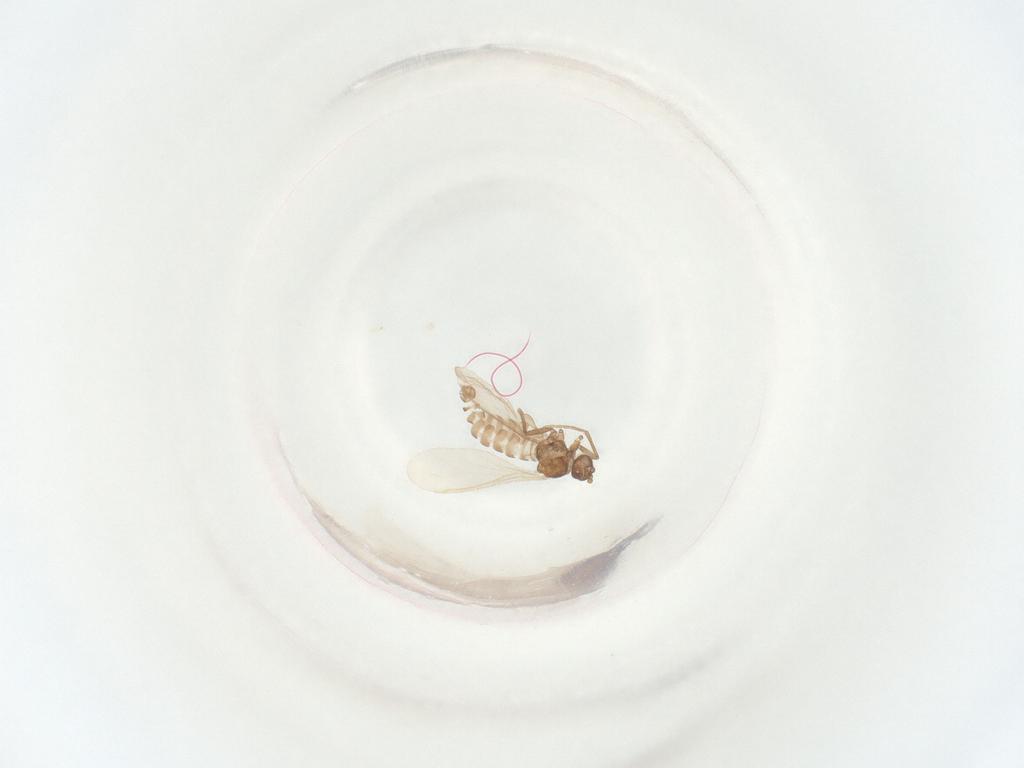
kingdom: Animalia
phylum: Arthropoda
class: Insecta
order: Diptera
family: Sciaridae
